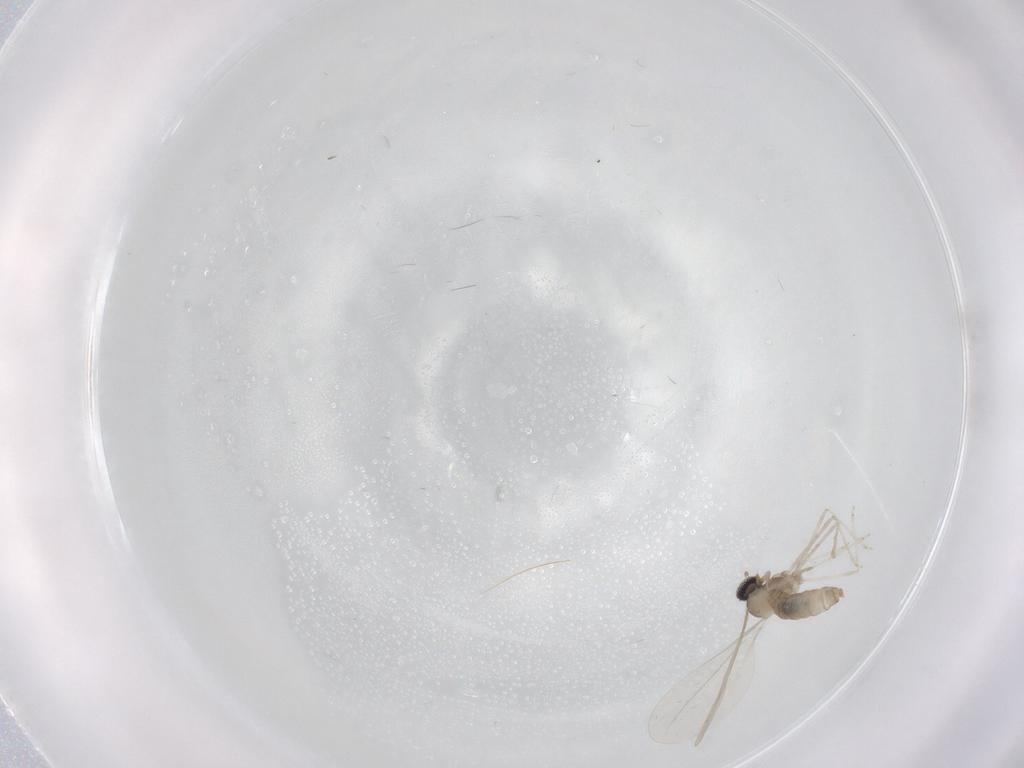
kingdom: Animalia
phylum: Arthropoda
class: Insecta
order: Diptera
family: Cecidomyiidae
